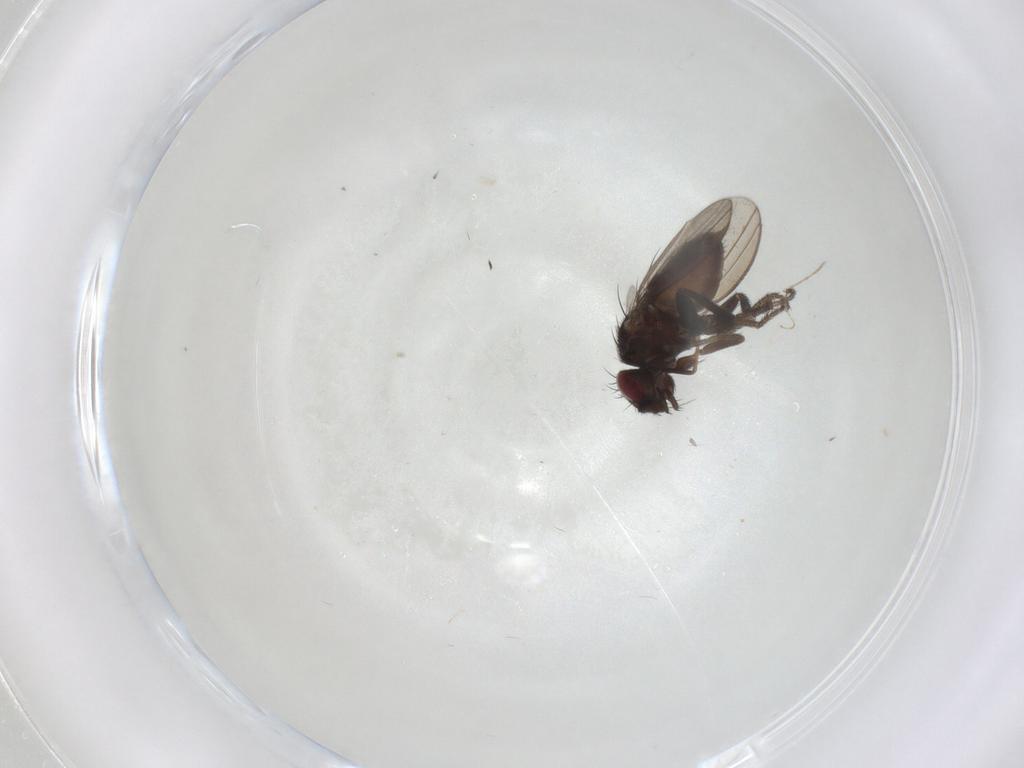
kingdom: Animalia
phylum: Arthropoda
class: Insecta
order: Diptera
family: Milichiidae
